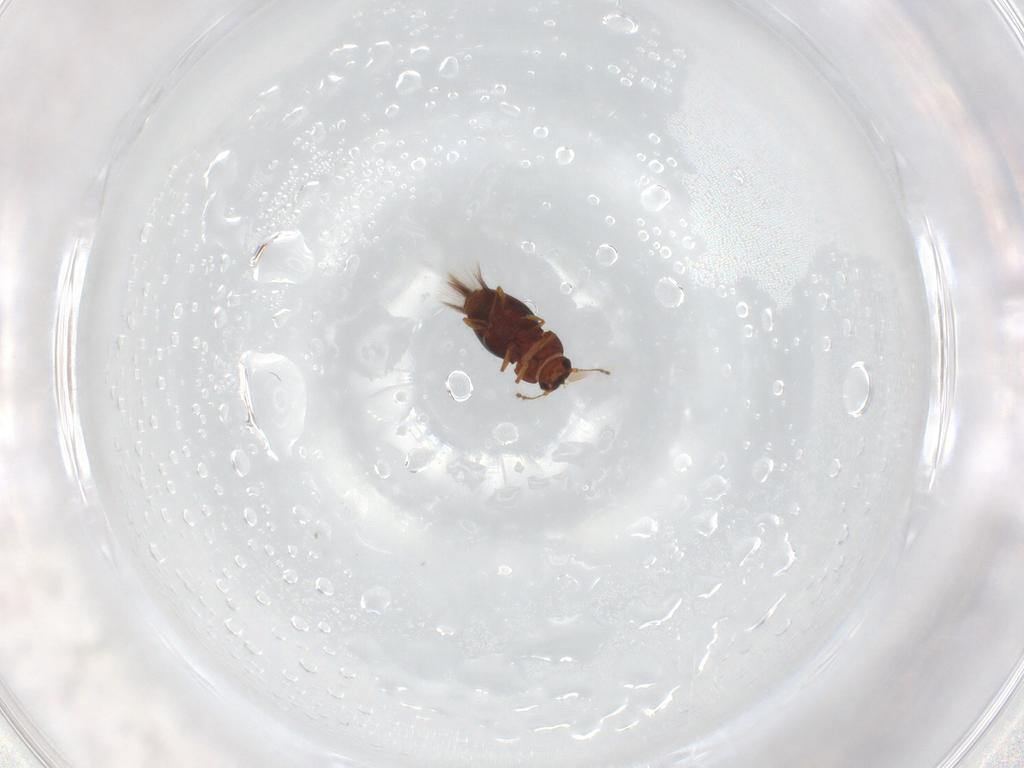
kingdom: Animalia
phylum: Arthropoda
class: Insecta
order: Coleoptera
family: Ptiliidae
